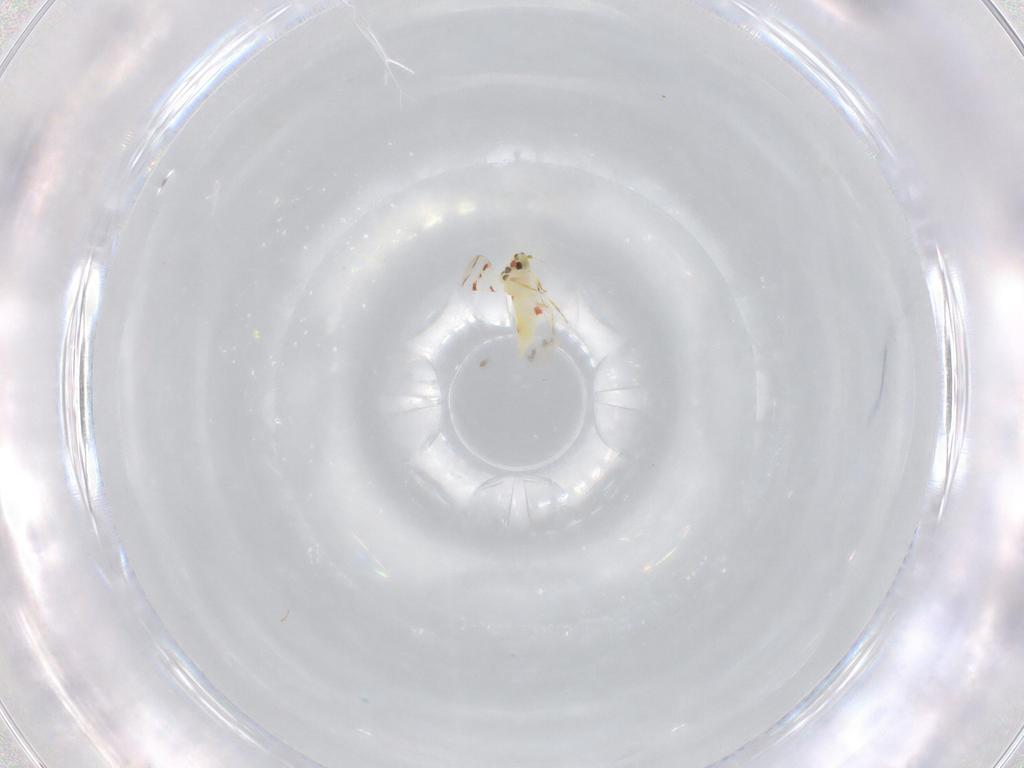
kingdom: Animalia
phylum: Arthropoda
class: Insecta
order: Hemiptera
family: Aleyrodidae
